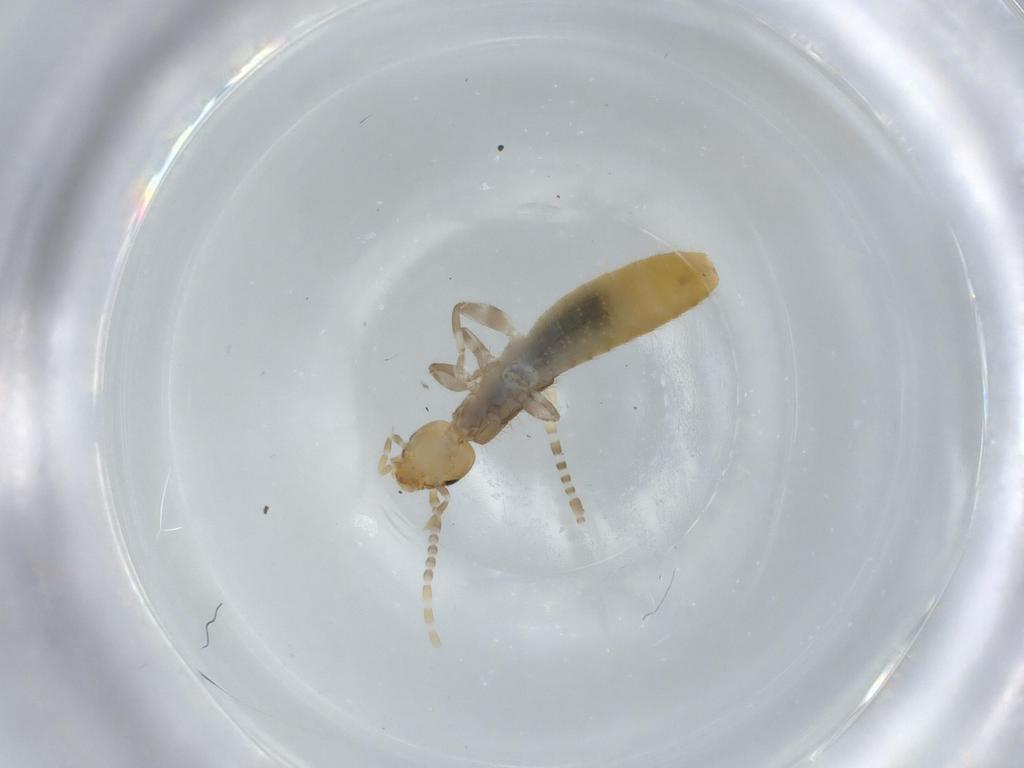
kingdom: Animalia
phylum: Arthropoda
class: Insecta
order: Dermaptera
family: Forficulidae
